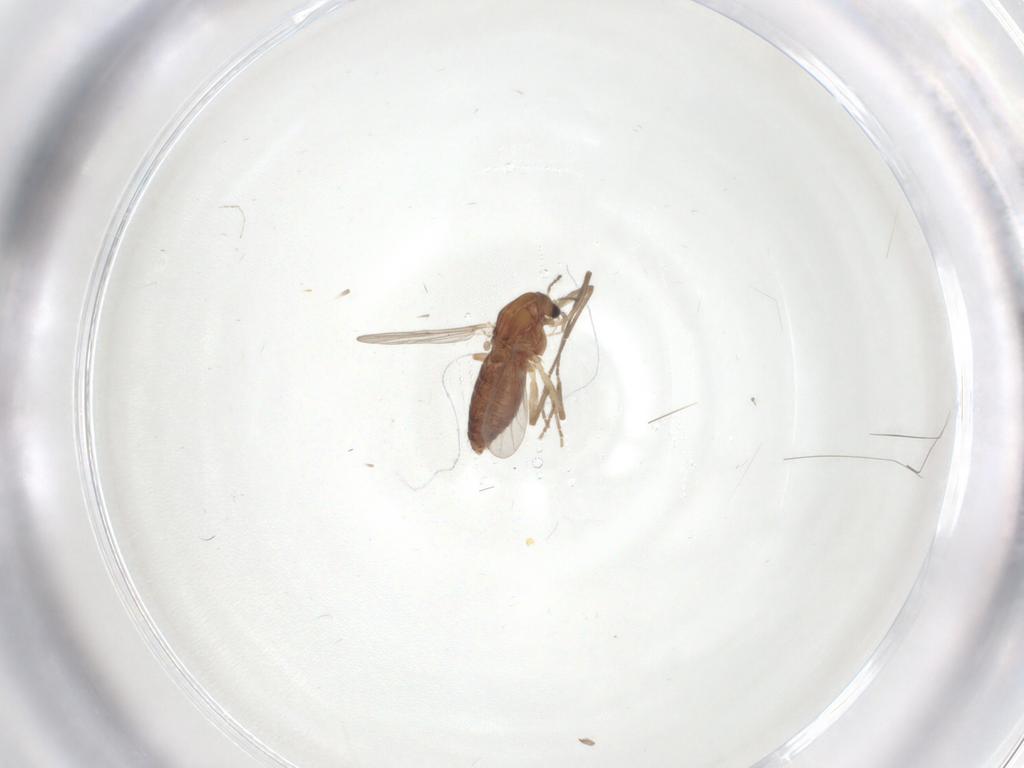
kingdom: Animalia
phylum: Arthropoda
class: Insecta
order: Diptera
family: Chironomidae
